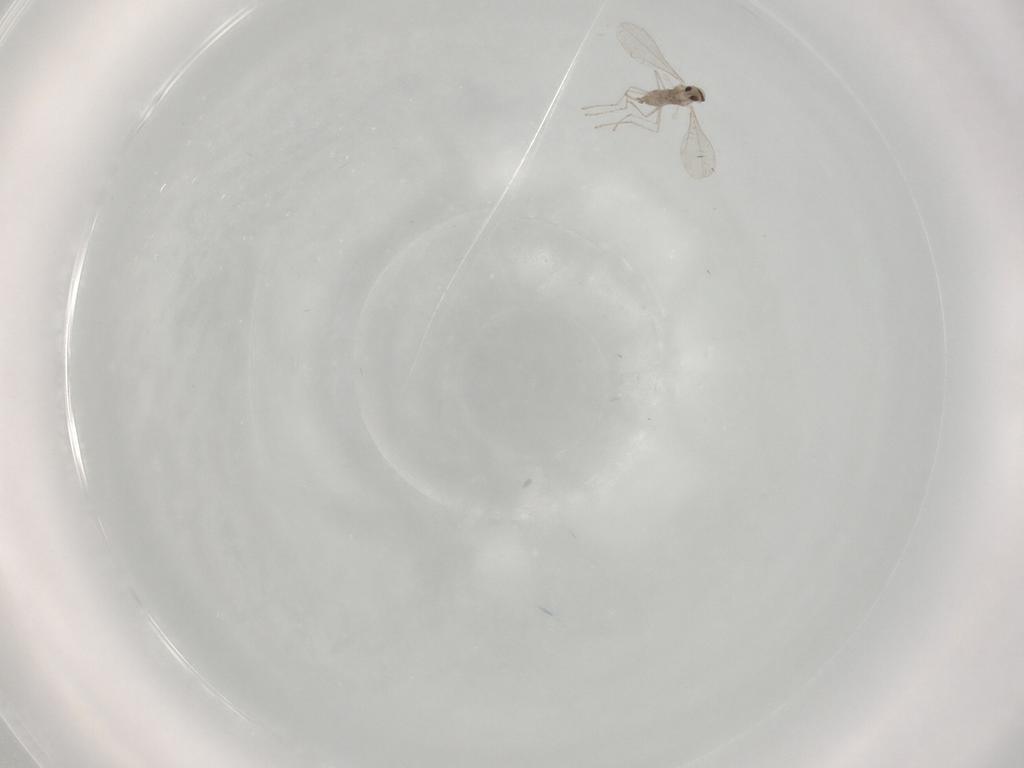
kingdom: Animalia
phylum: Arthropoda
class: Insecta
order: Diptera
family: Cecidomyiidae
